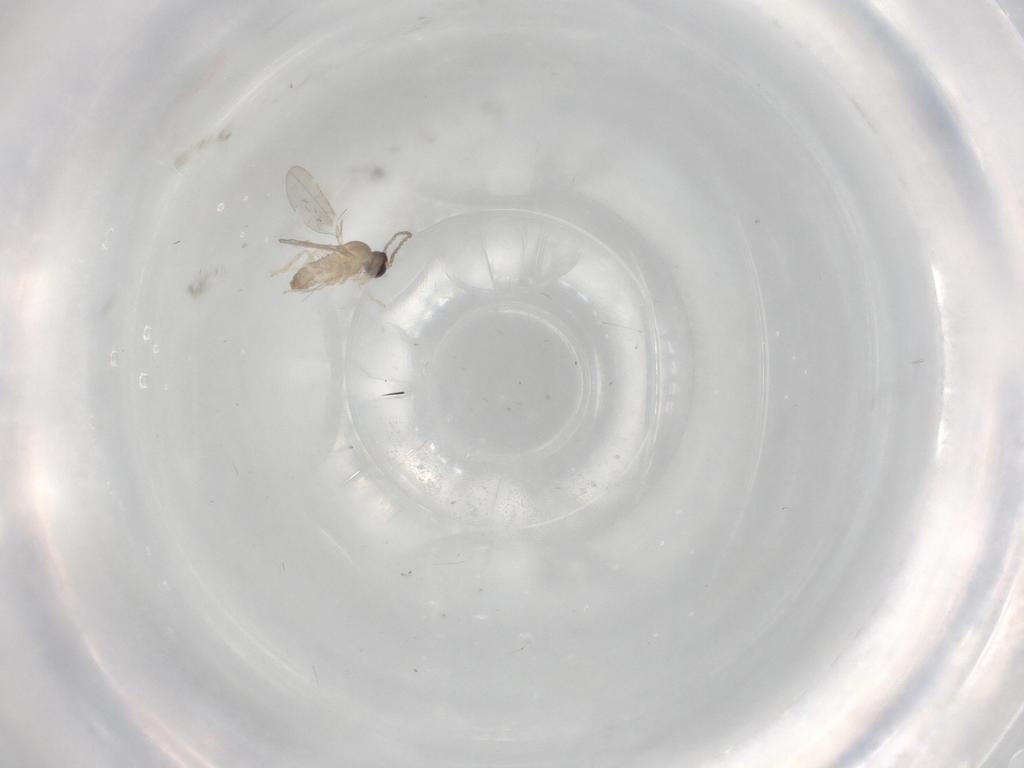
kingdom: Animalia
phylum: Arthropoda
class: Insecta
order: Diptera
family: Cecidomyiidae
